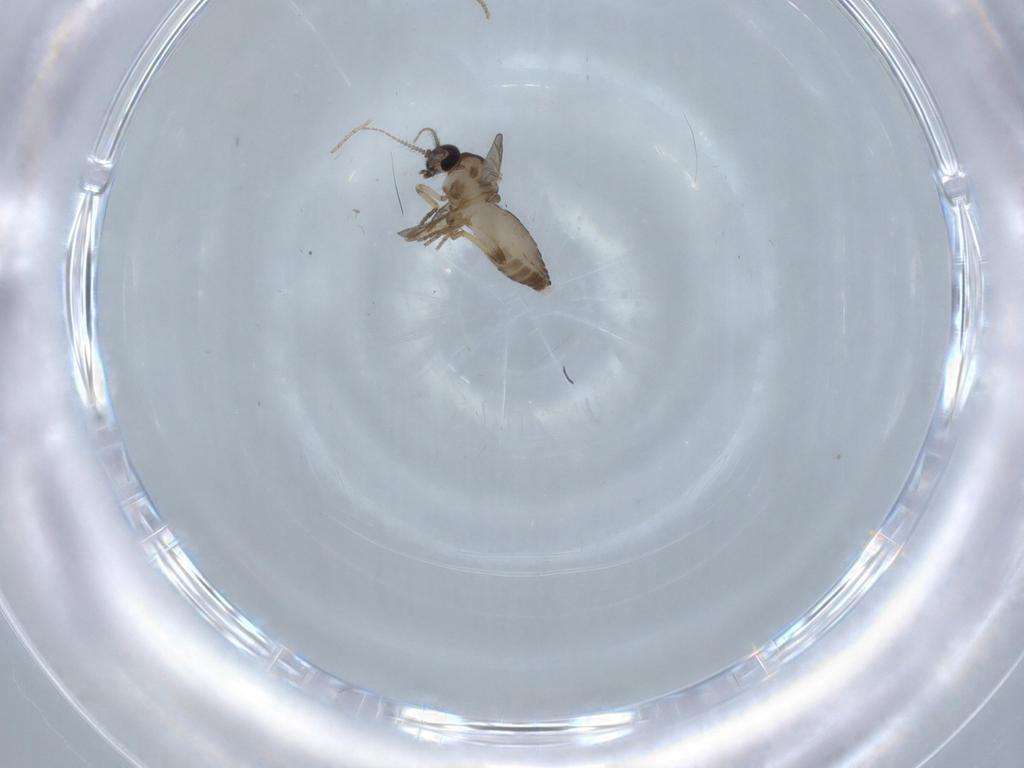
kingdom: Animalia
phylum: Arthropoda
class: Insecta
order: Diptera
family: Ceratopogonidae
